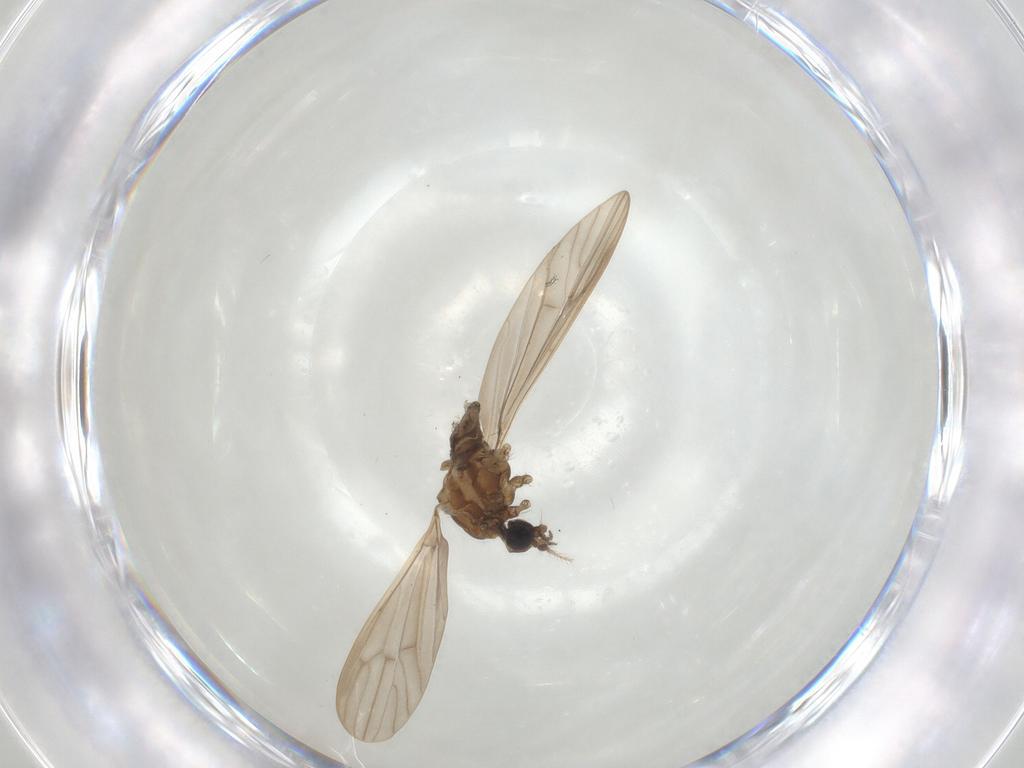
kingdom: Animalia
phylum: Arthropoda
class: Insecta
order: Diptera
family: Limoniidae
